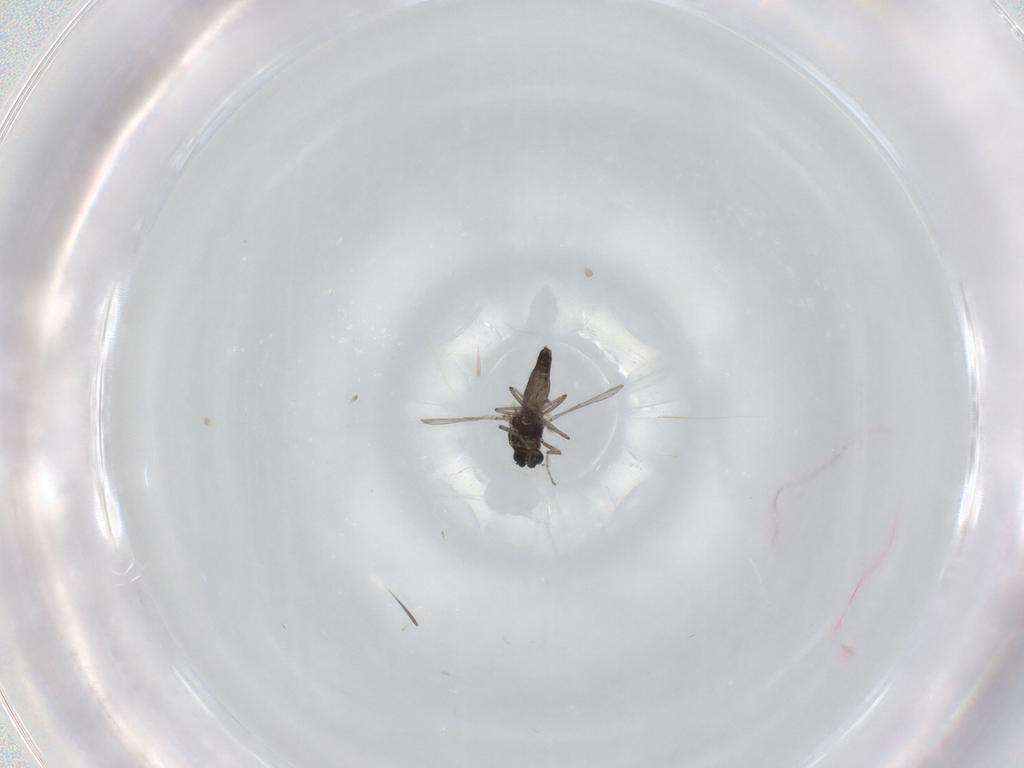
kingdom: Animalia
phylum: Arthropoda
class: Insecta
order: Diptera
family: Ceratopogonidae
